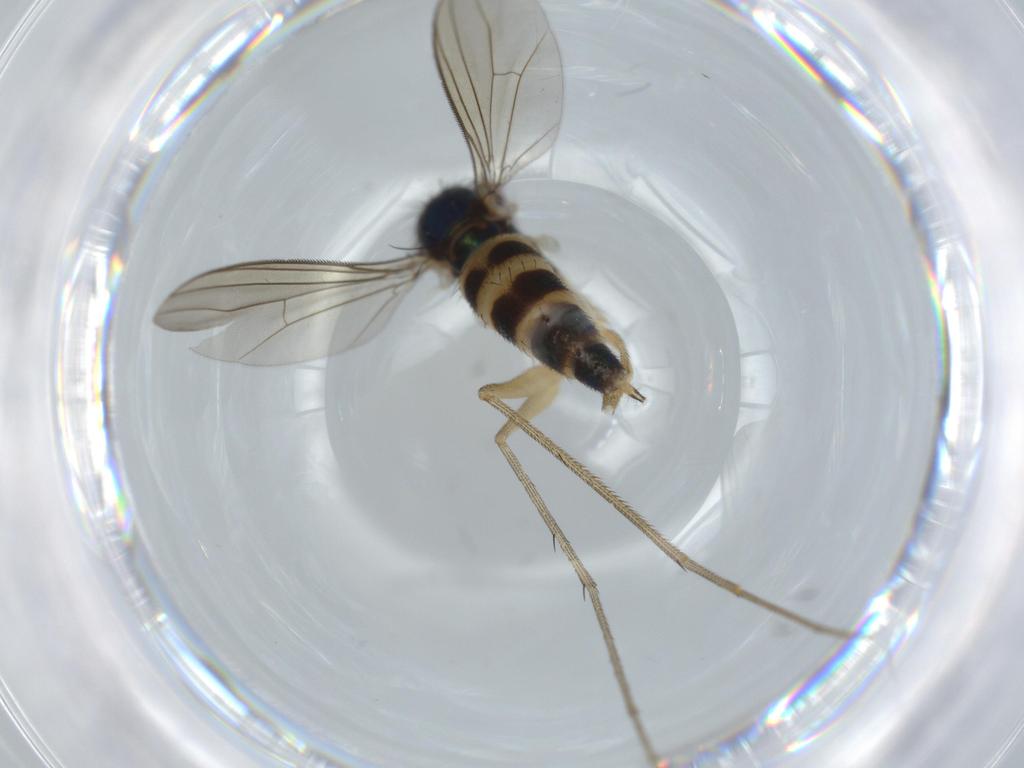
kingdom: Animalia
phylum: Arthropoda
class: Insecta
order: Diptera
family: Dolichopodidae
